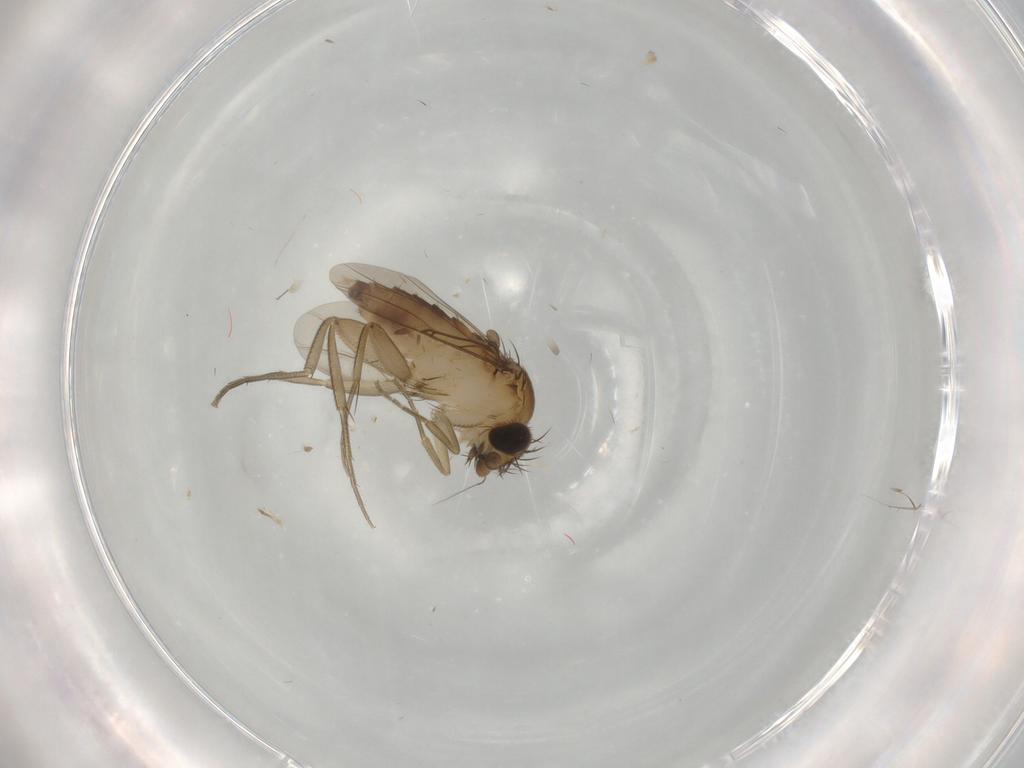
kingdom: Animalia
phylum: Arthropoda
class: Insecta
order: Diptera
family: Phoridae
